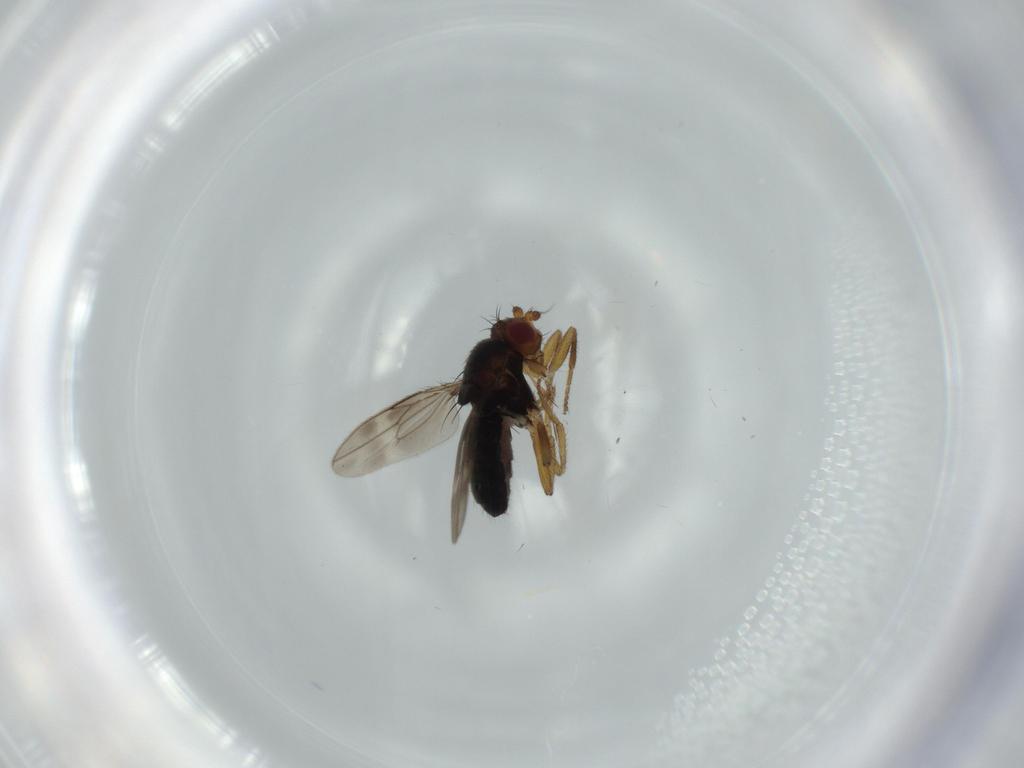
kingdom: Animalia
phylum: Arthropoda
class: Insecta
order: Diptera
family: Sphaeroceridae
